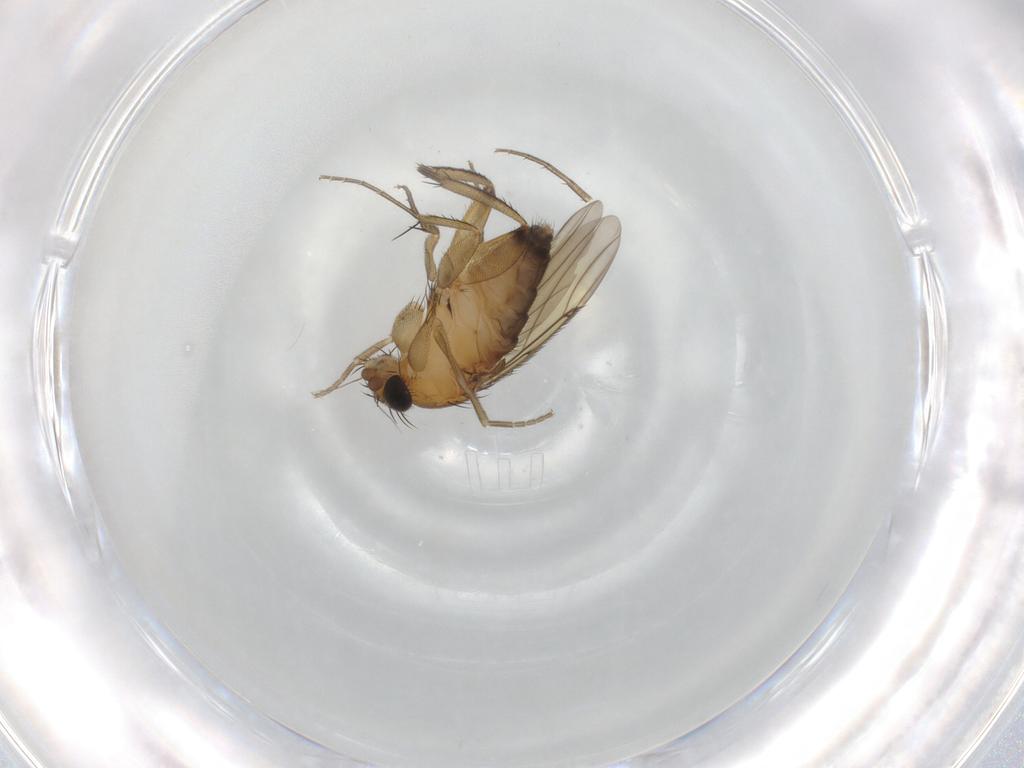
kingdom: Animalia
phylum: Arthropoda
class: Insecta
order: Diptera
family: Phoridae
